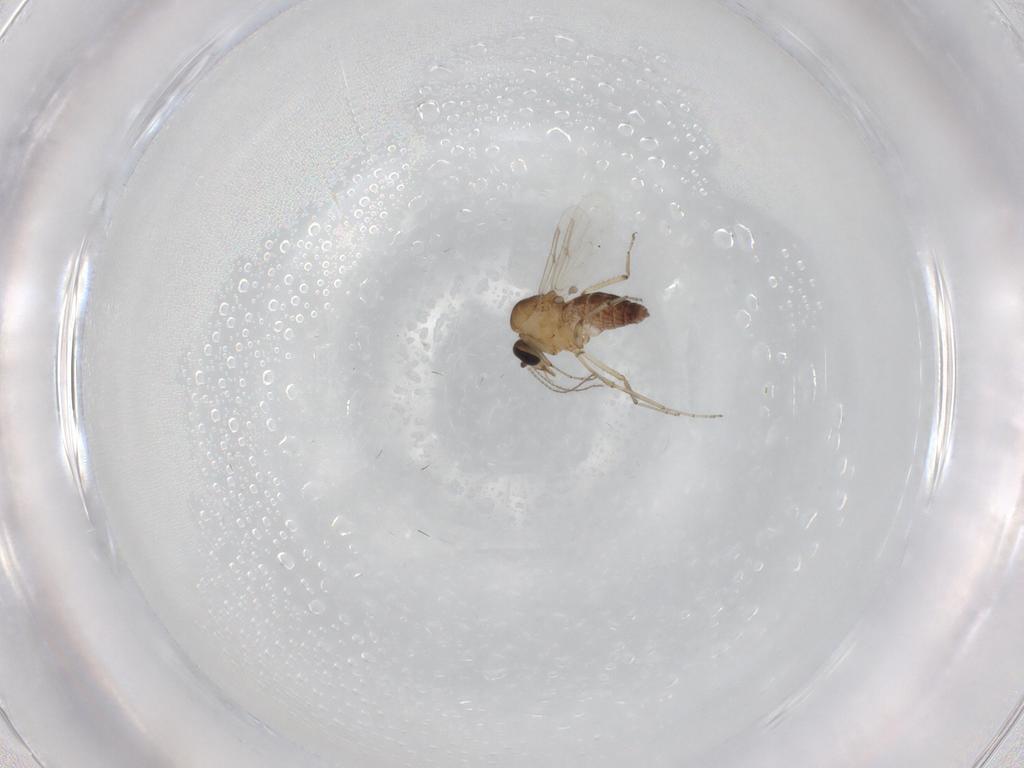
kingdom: Animalia
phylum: Arthropoda
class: Insecta
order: Diptera
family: Ceratopogonidae
